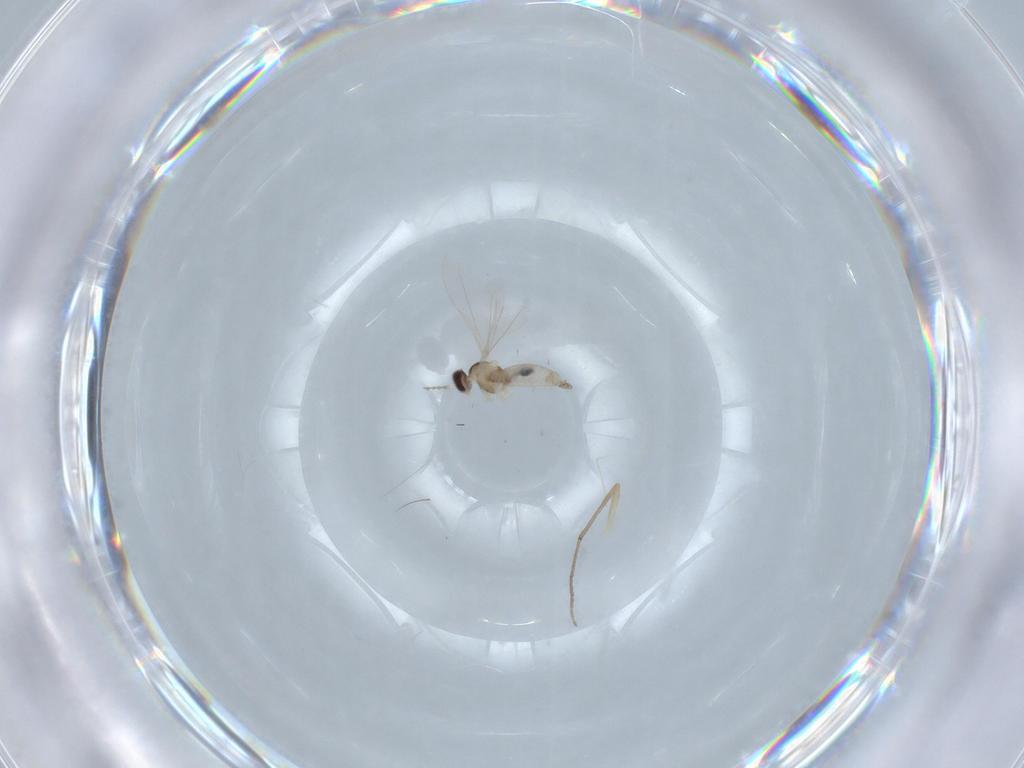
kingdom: Animalia
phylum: Arthropoda
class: Insecta
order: Diptera
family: Cecidomyiidae
